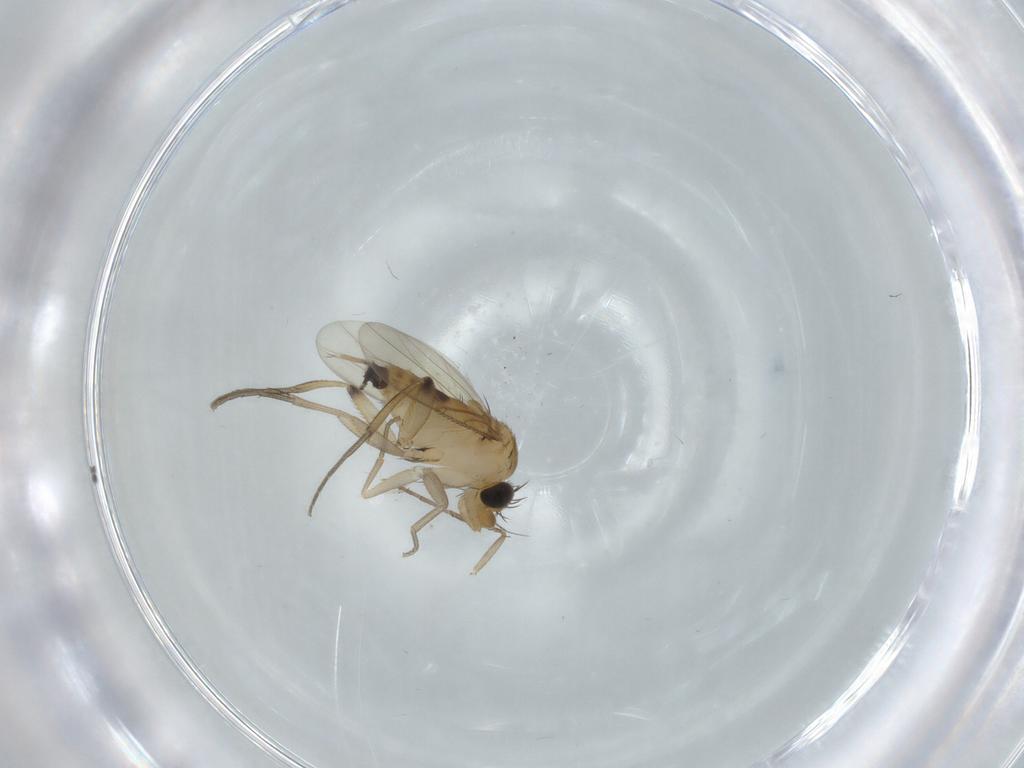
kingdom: Animalia
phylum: Arthropoda
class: Insecta
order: Diptera
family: Phoridae
